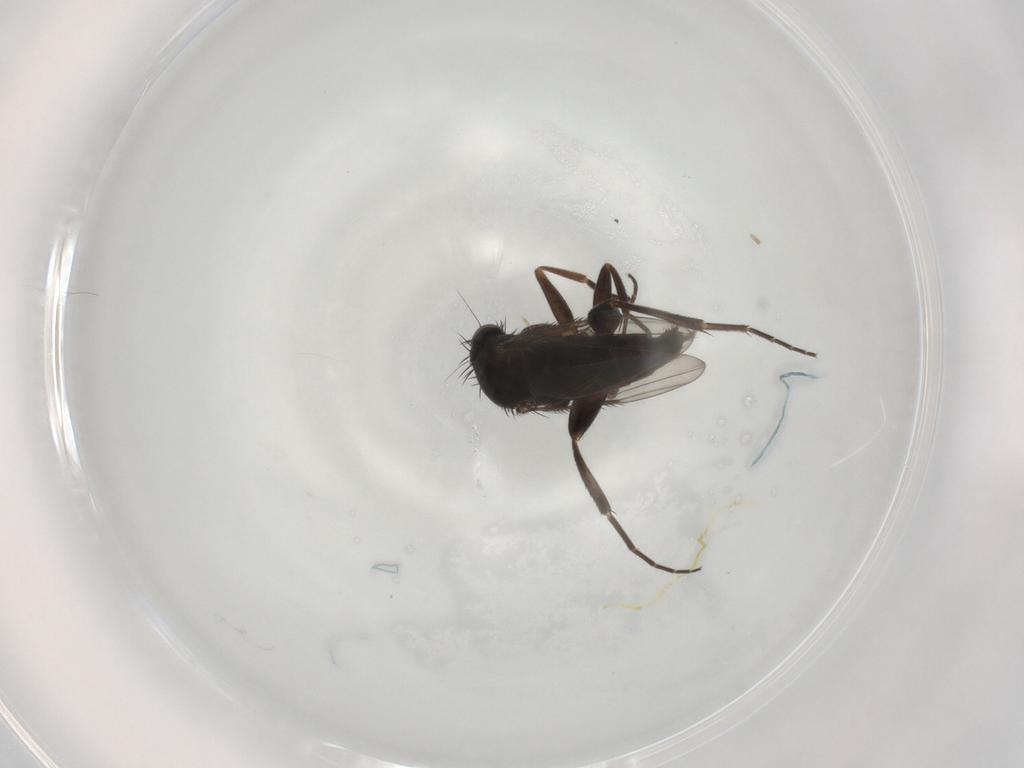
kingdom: Animalia
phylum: Arthropoda
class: Insecta
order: Diptera
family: Phoridae
